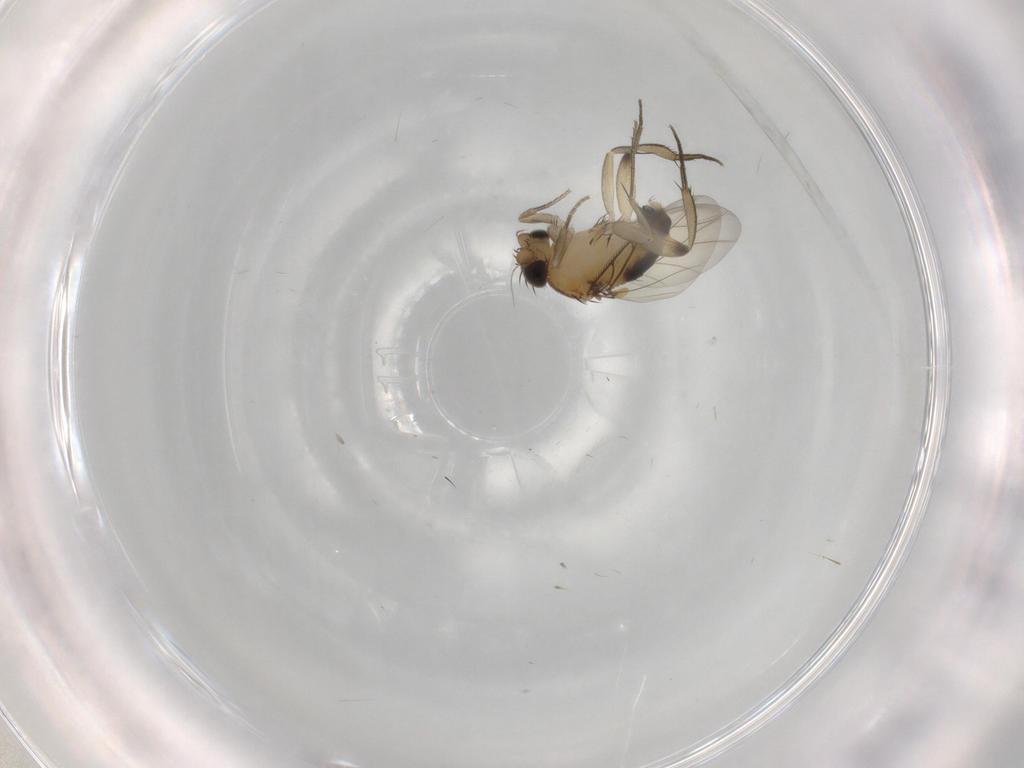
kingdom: Animalia
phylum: Arthropoda
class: Insecta
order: Diptera
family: Phoridae
